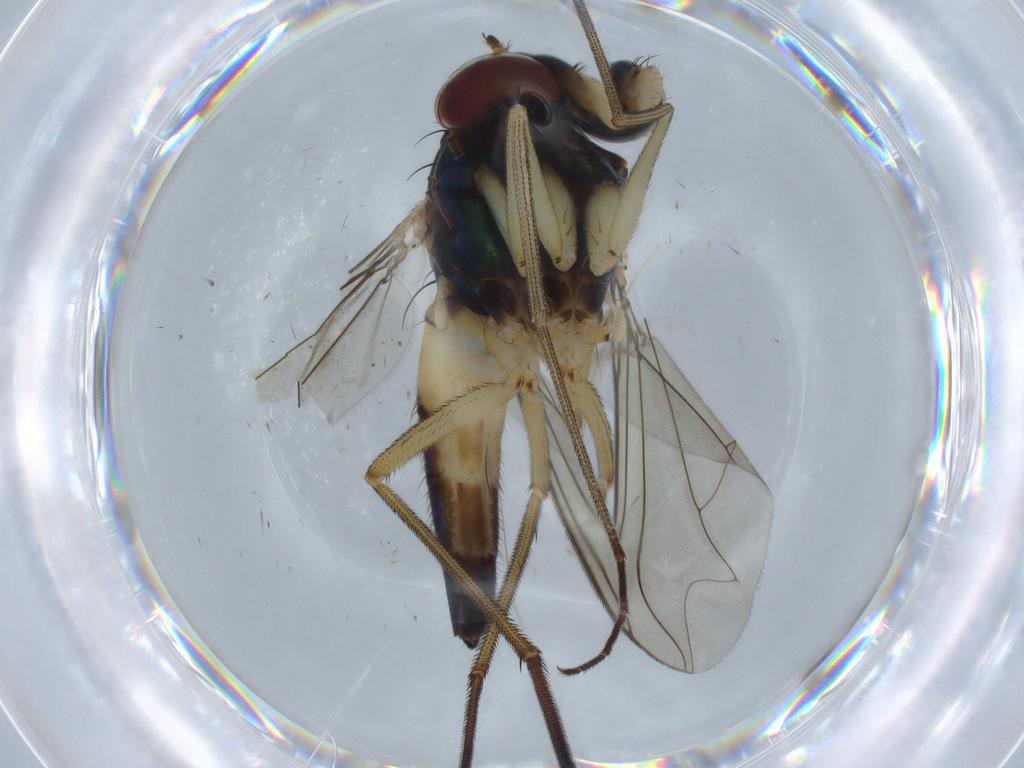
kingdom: Animalia
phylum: Arthropoda
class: Insecta
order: Diptera
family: Dolichopodidae
